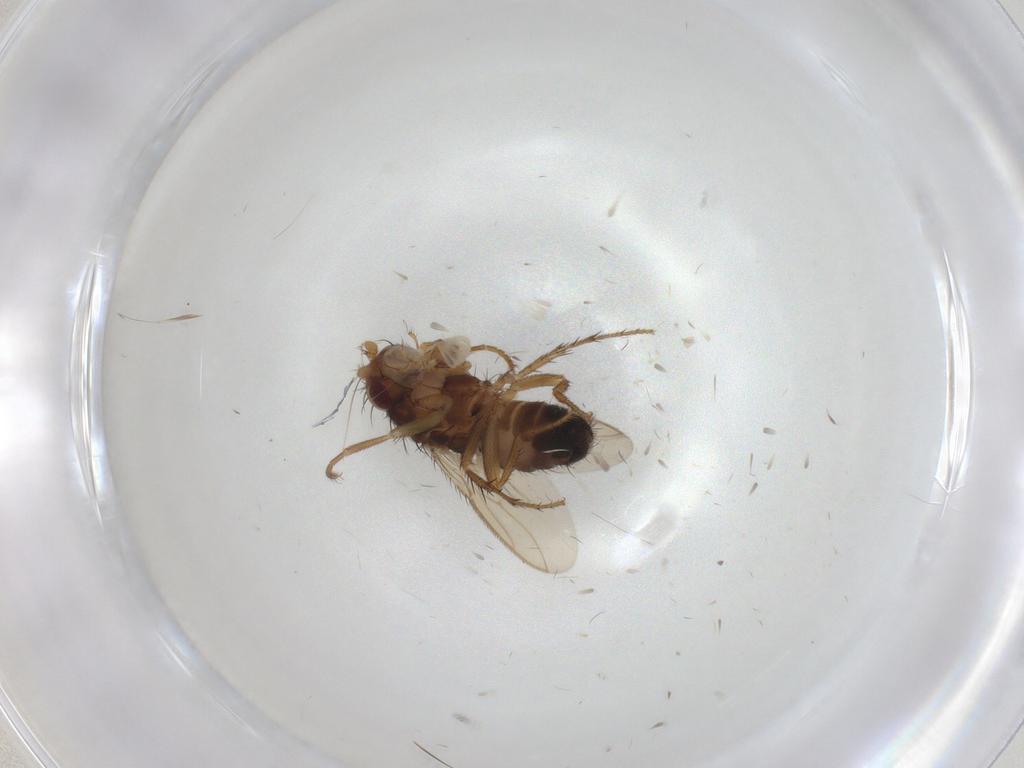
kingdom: Animalia
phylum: Arthropoda
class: Insecta
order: Diptera
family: Sphaeroceridae
